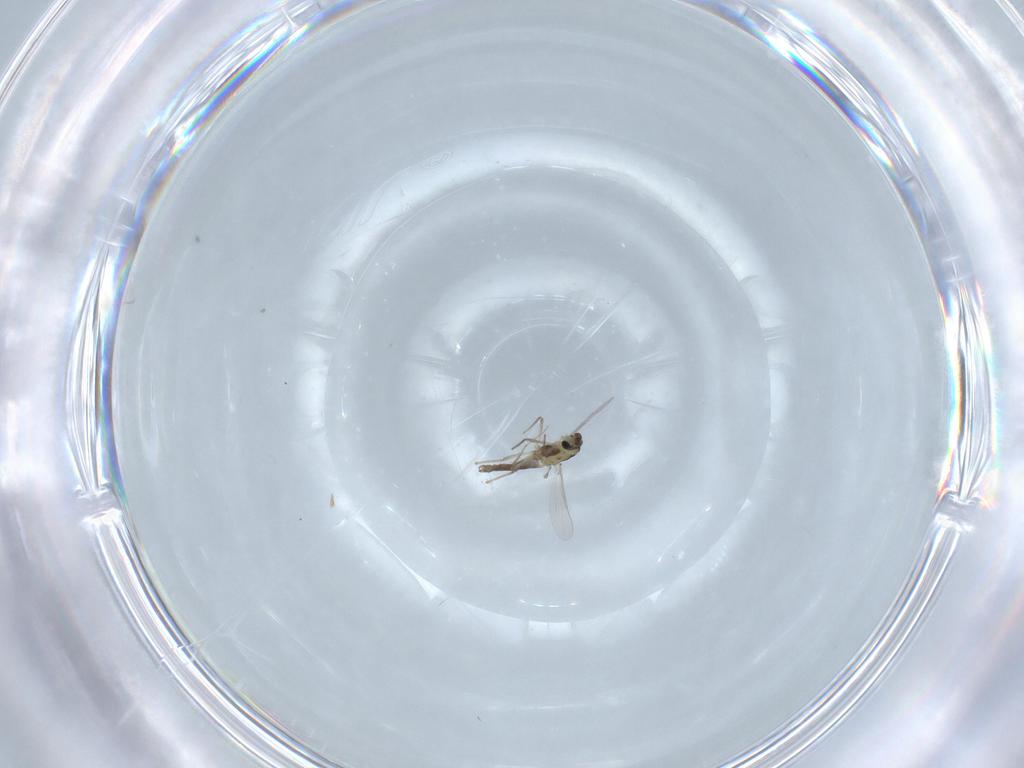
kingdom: Animalia
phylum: Arthropoda
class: Insecta
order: Diptera
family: Chironomidae
